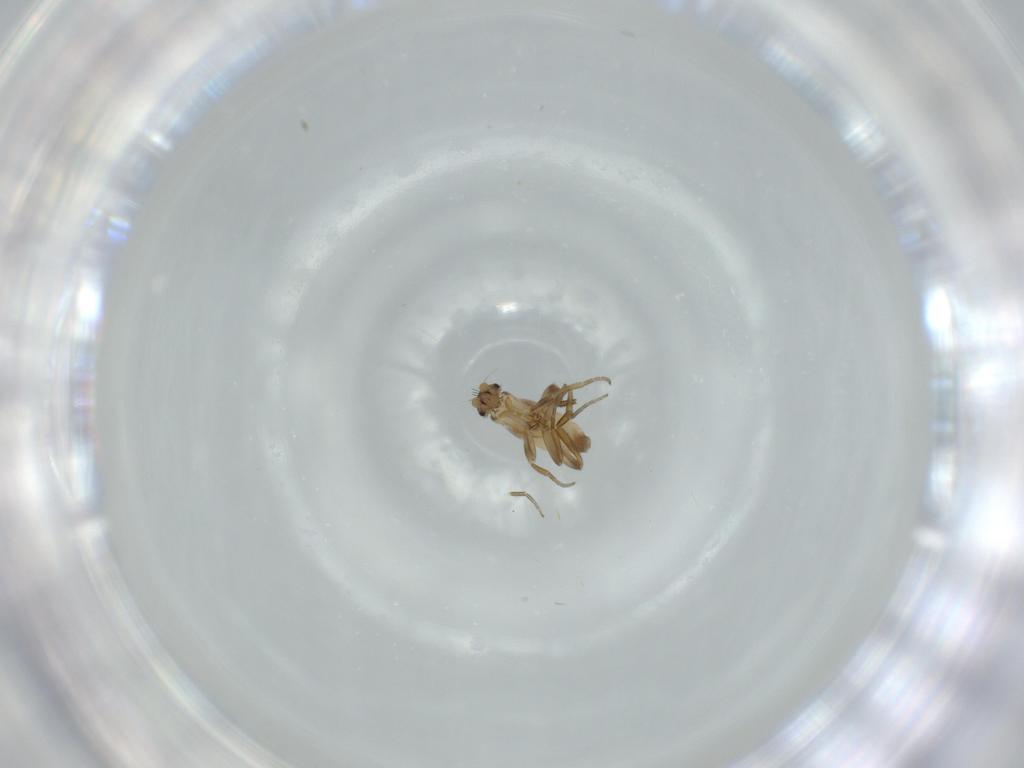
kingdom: Animalia
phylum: Arthropoda
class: Insecta
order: Diptera
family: Phoridae
